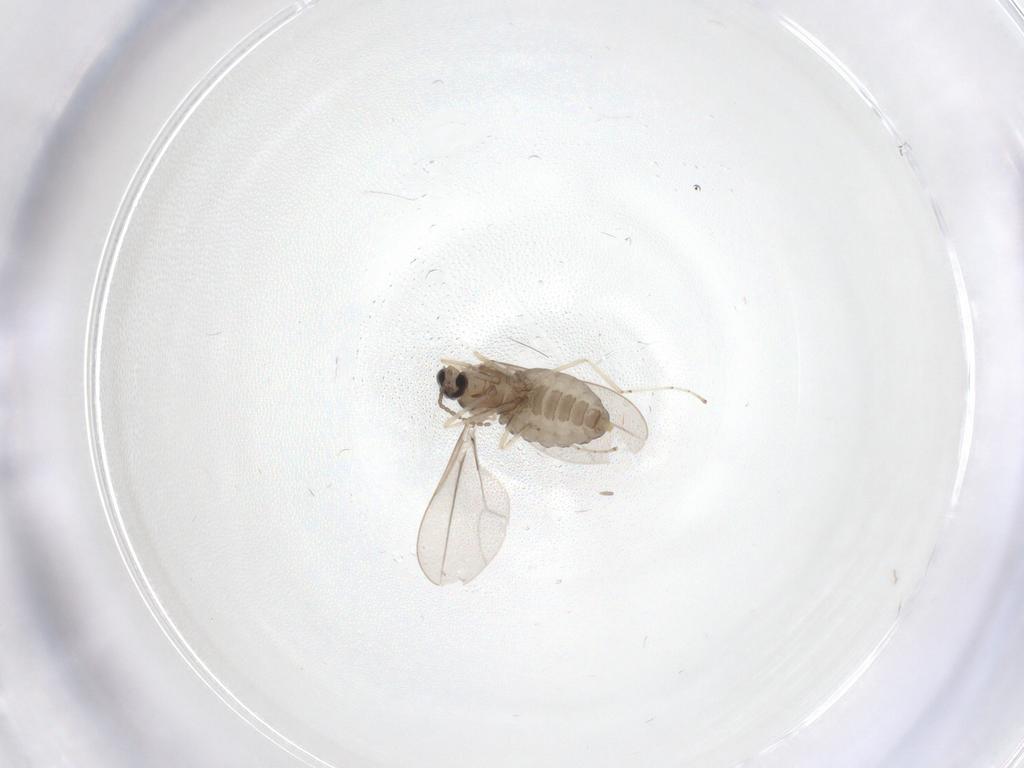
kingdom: Animalia
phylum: Arthropoda
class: Insecta
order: Diptera
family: Cecidomyiidae
